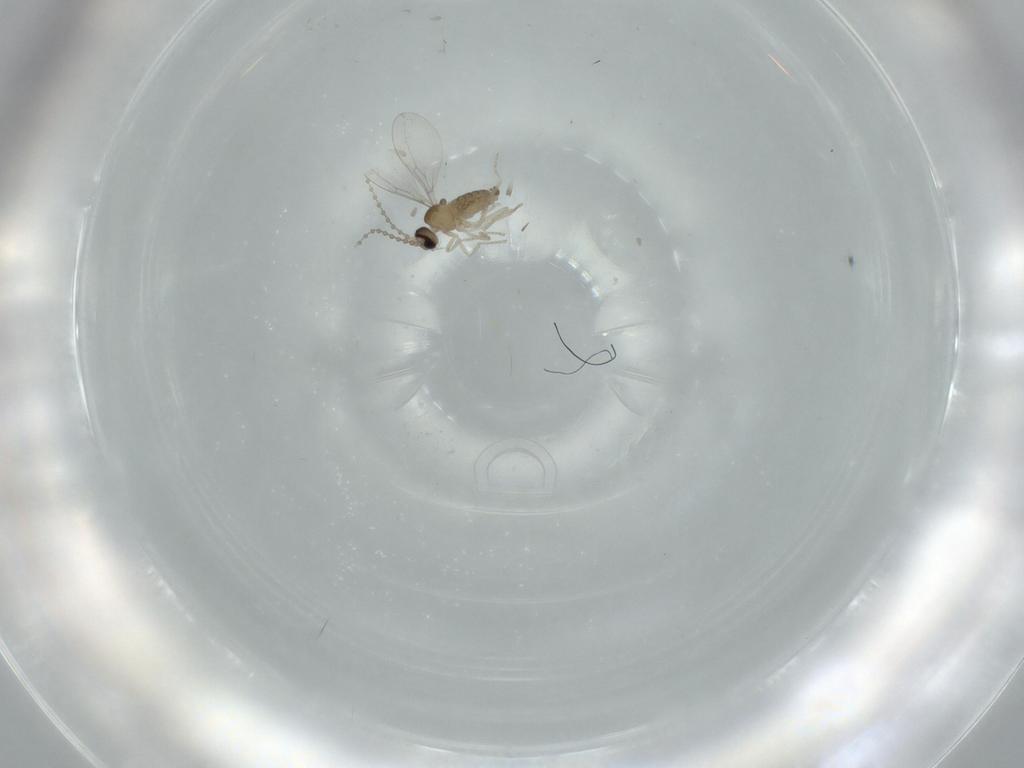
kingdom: Animalia
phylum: Arthropoda
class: Insecta
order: Diptera
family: Cecidomyiidae
